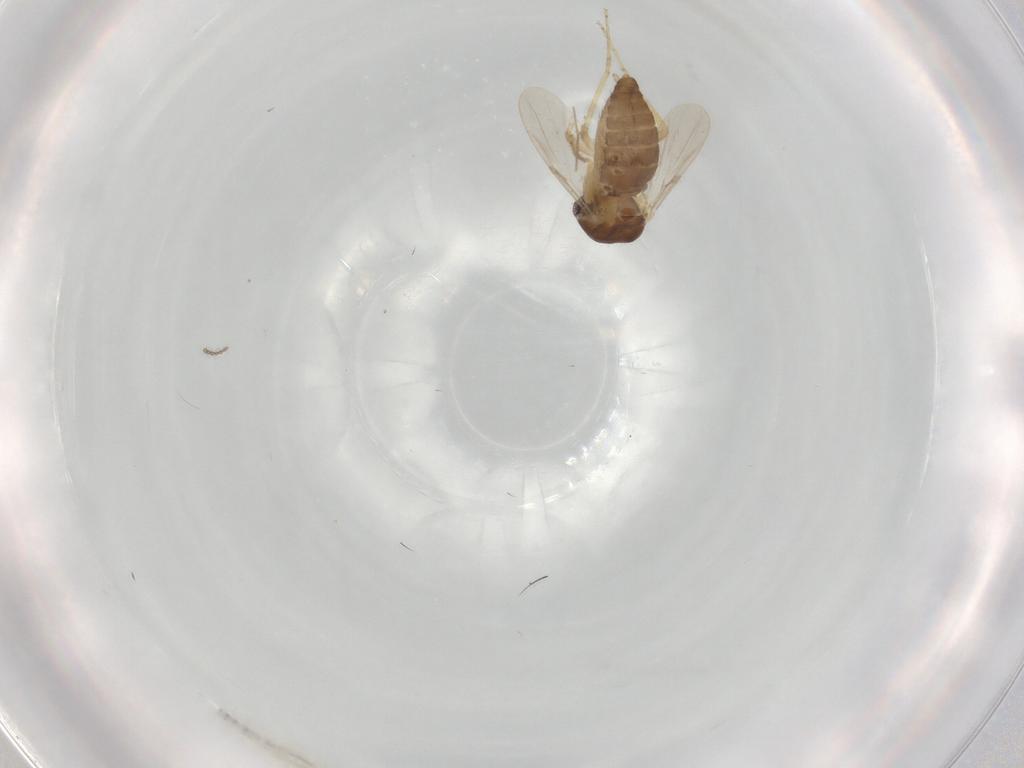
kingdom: Animalia
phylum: Arthropoda
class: Insecta
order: Diptera
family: Ceratopogonidae
